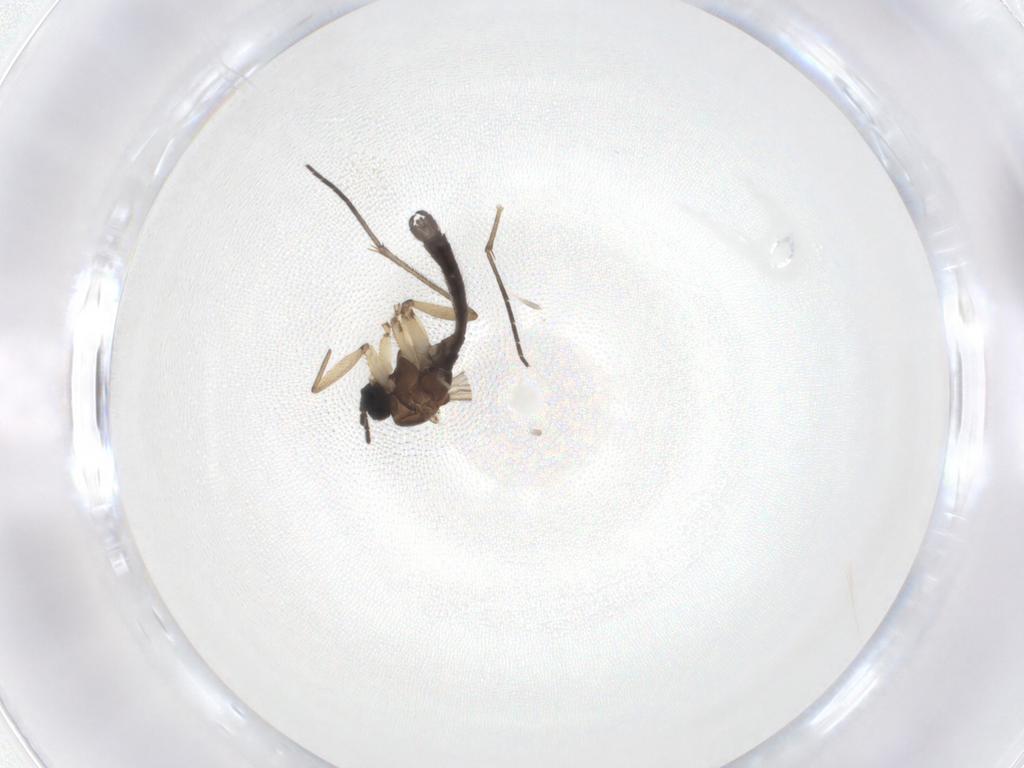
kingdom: Animalia
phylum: Arthropoda
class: Insecta
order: Diptera
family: Sciaridae
